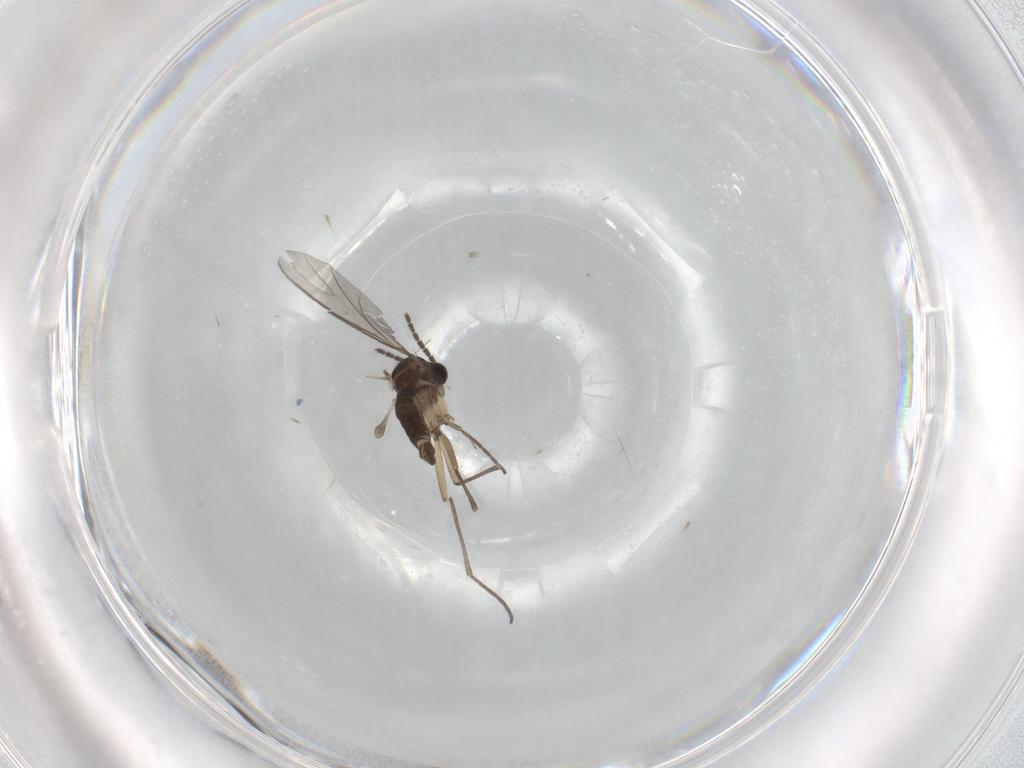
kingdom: Animalia
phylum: Arthropoda
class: Insecta
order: Diptera
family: Sciaridae
